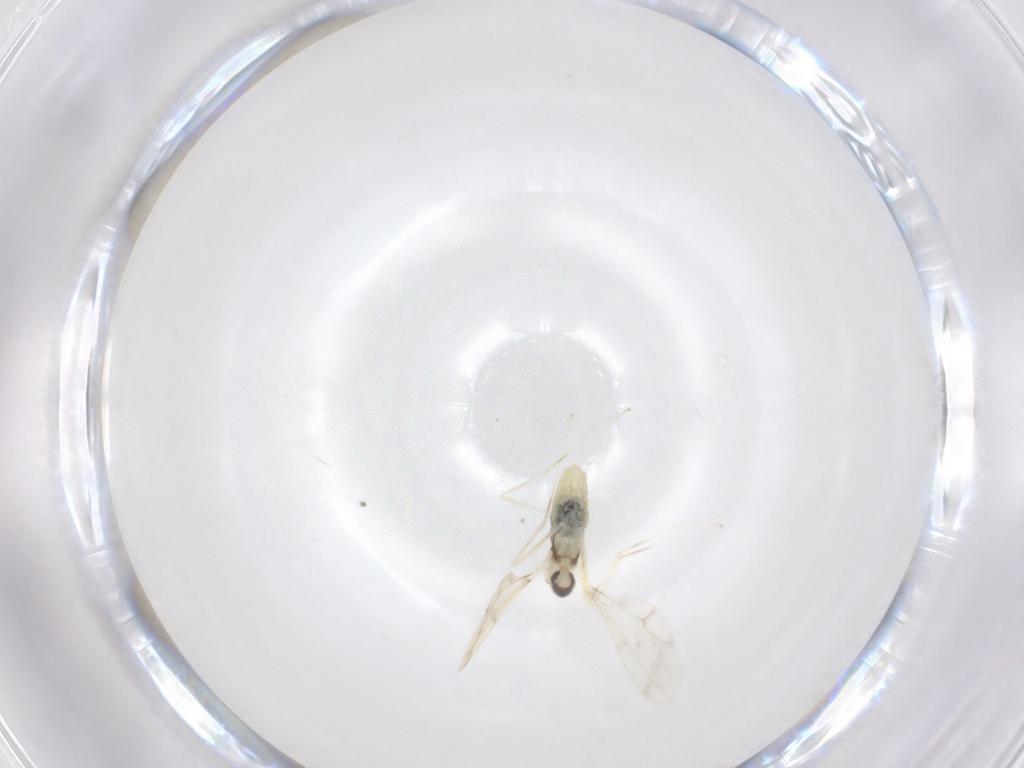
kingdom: Animalia
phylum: Arthropoda
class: Insecta
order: Diptera
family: Cecidomyiidae
